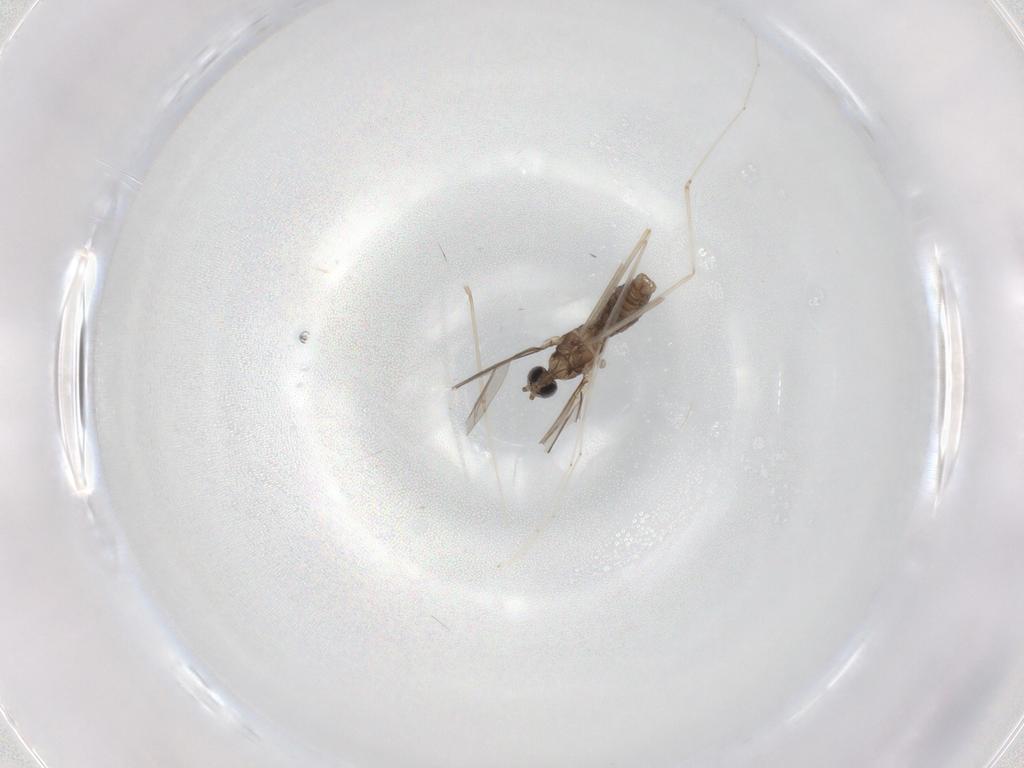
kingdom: Animalia
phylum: Arthropoda
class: Insecta
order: Diptera
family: Cecidomyiidae
